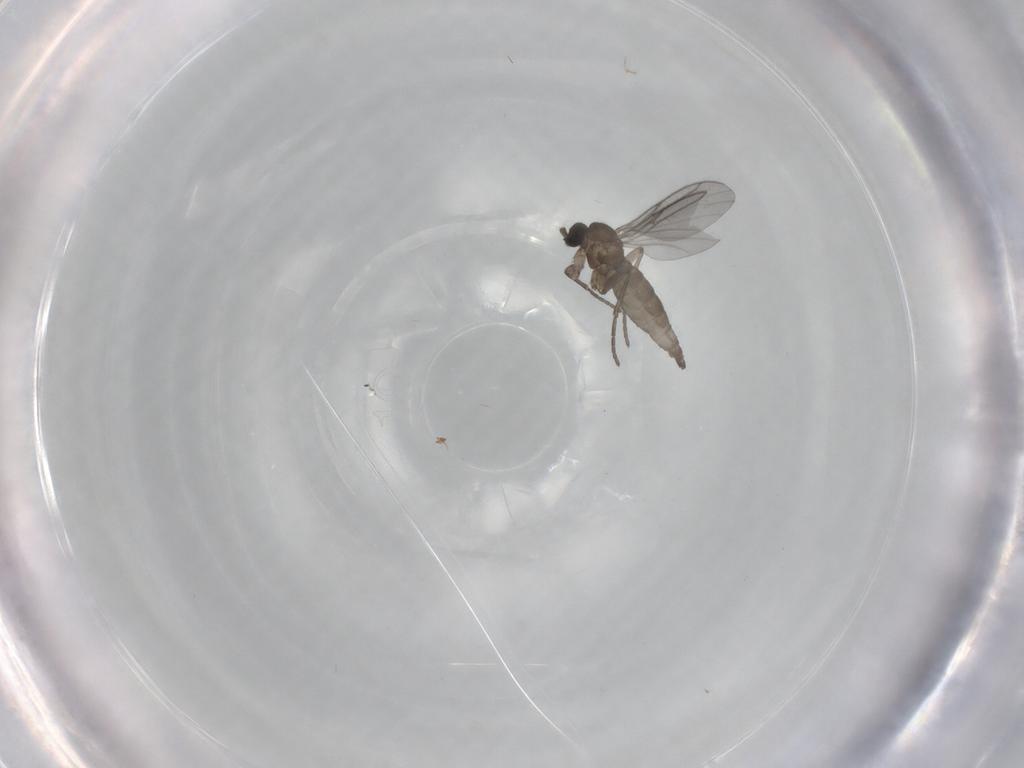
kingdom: Animalia
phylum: Arthropoda
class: Insecta
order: Diptera
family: Sciaridae
